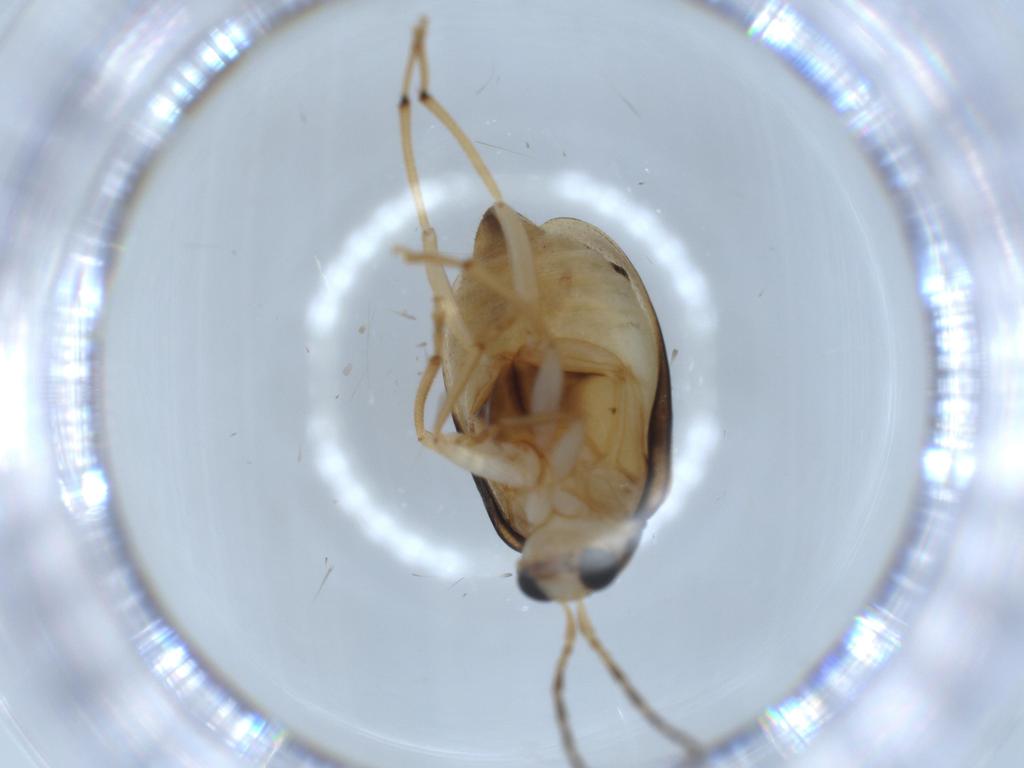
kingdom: Animalia
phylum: Arthropoda
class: Insecta
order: Coleoptera
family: Chrysomelidae
